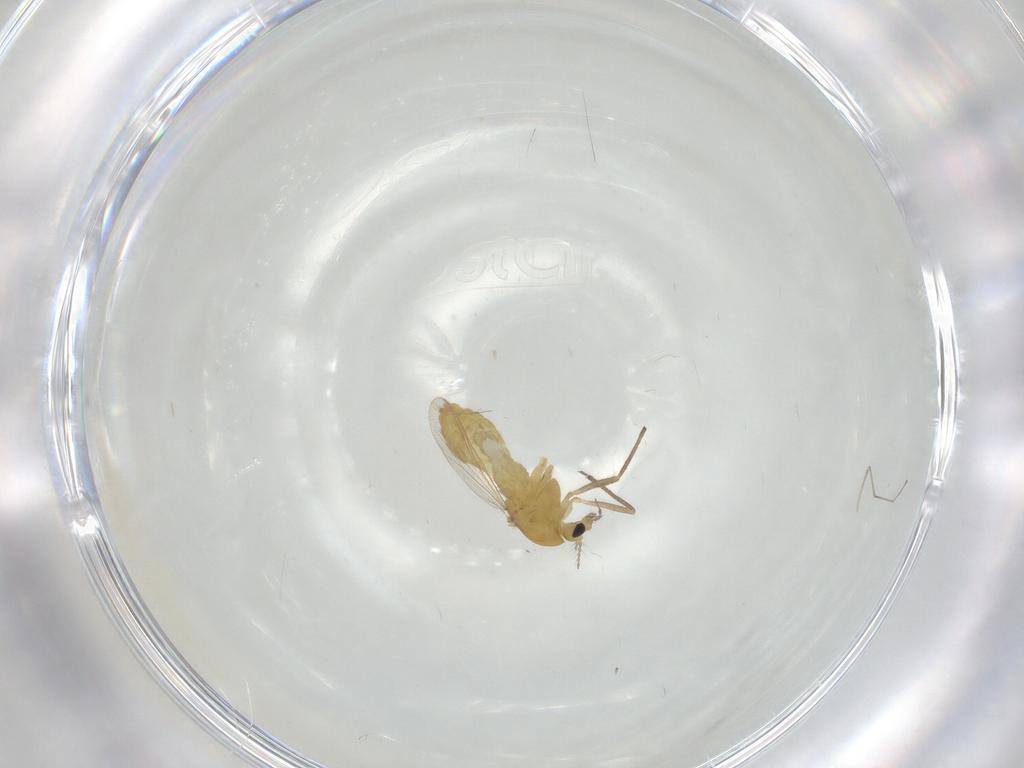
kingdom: Animalia
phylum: Arthropoda
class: Insecta
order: Diptera
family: Chironomidae
